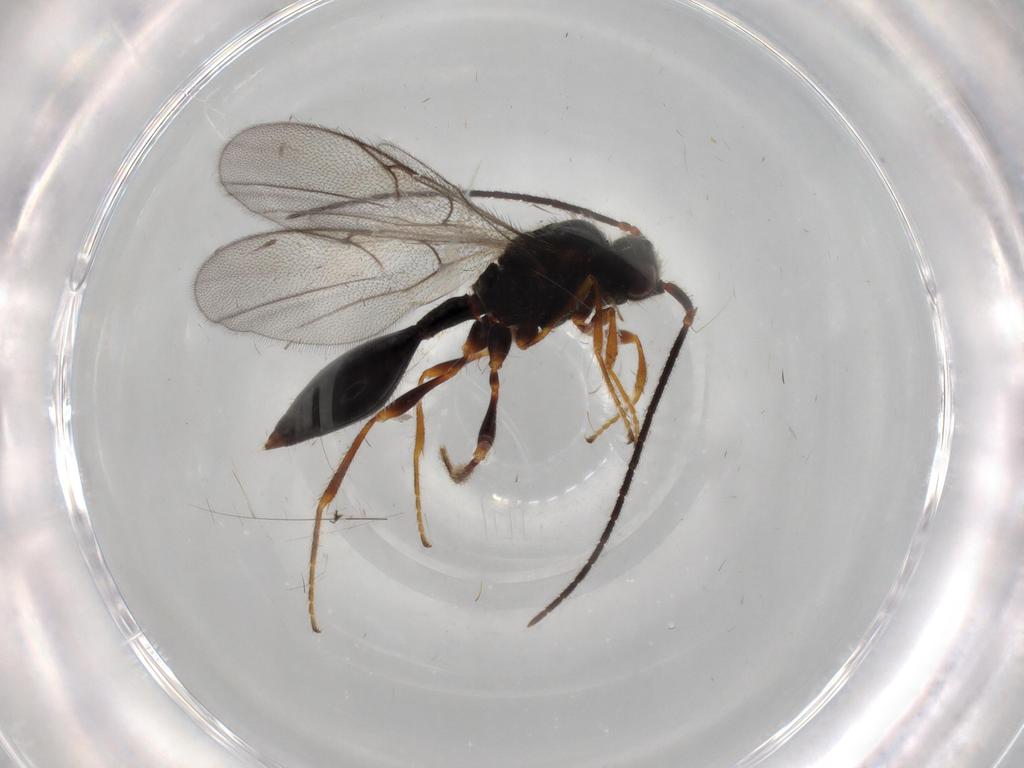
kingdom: Animalia
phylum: Arthropoda
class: Insecta
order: Hymenoptera
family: Diapriidae
